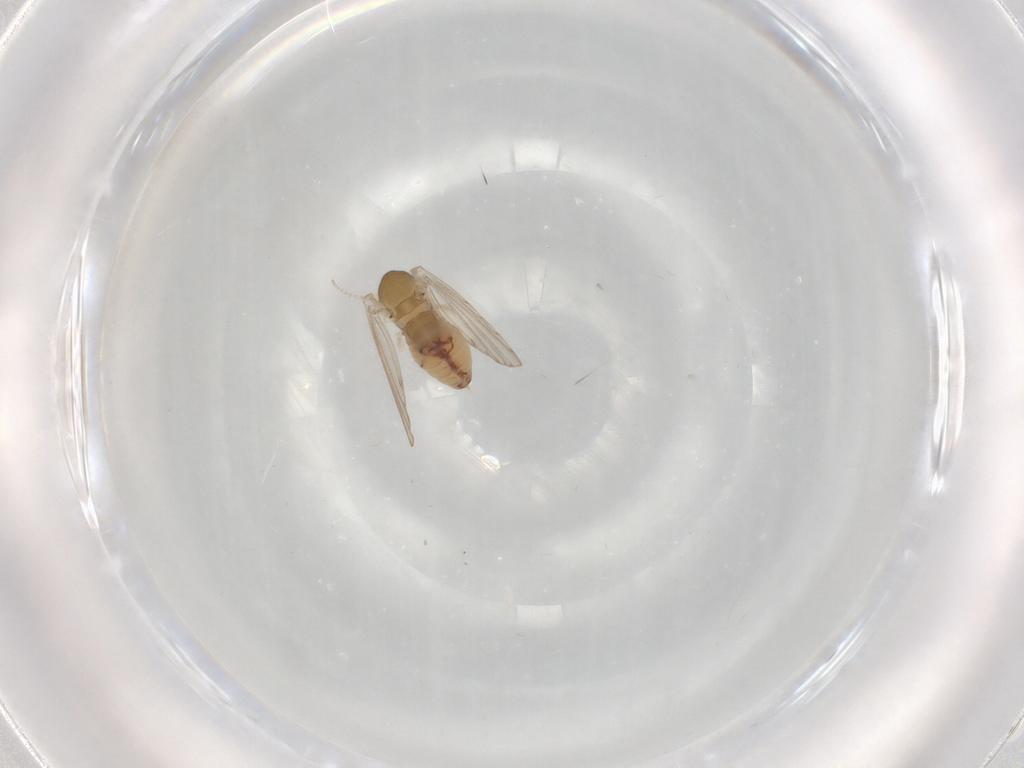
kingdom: Animalia
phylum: Arthropoda
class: Insecta
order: Diptera
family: Psychodidae
